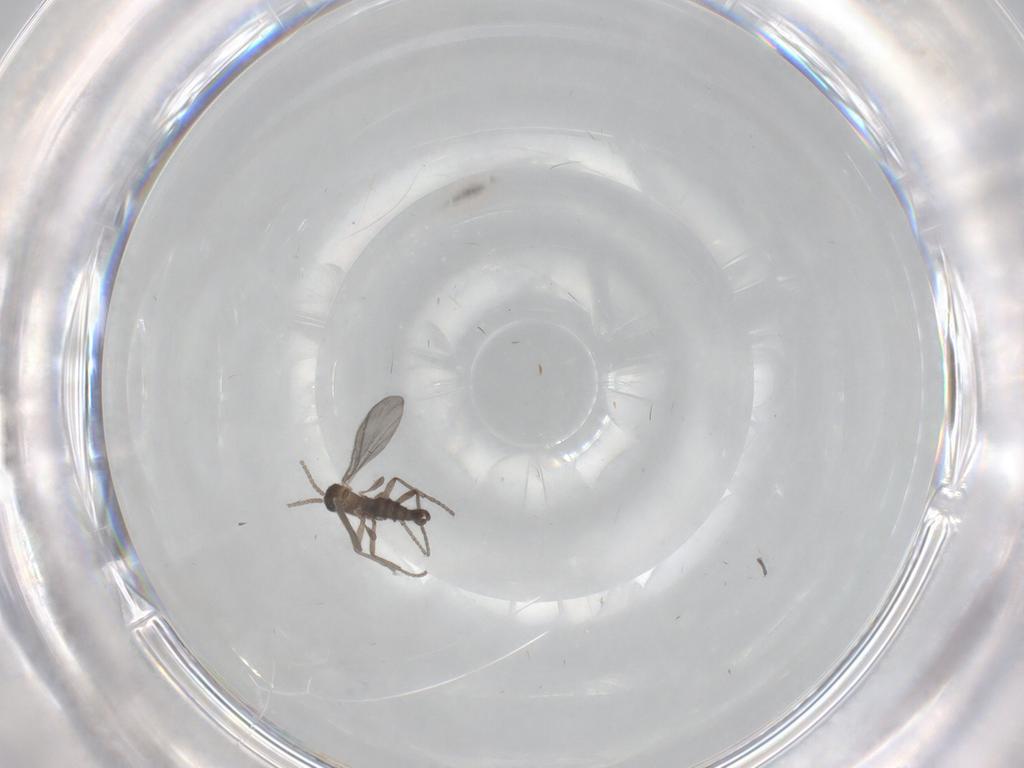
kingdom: Animalia
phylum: Arthropoda
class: Insecta
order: Diptera
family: Sciaridae
